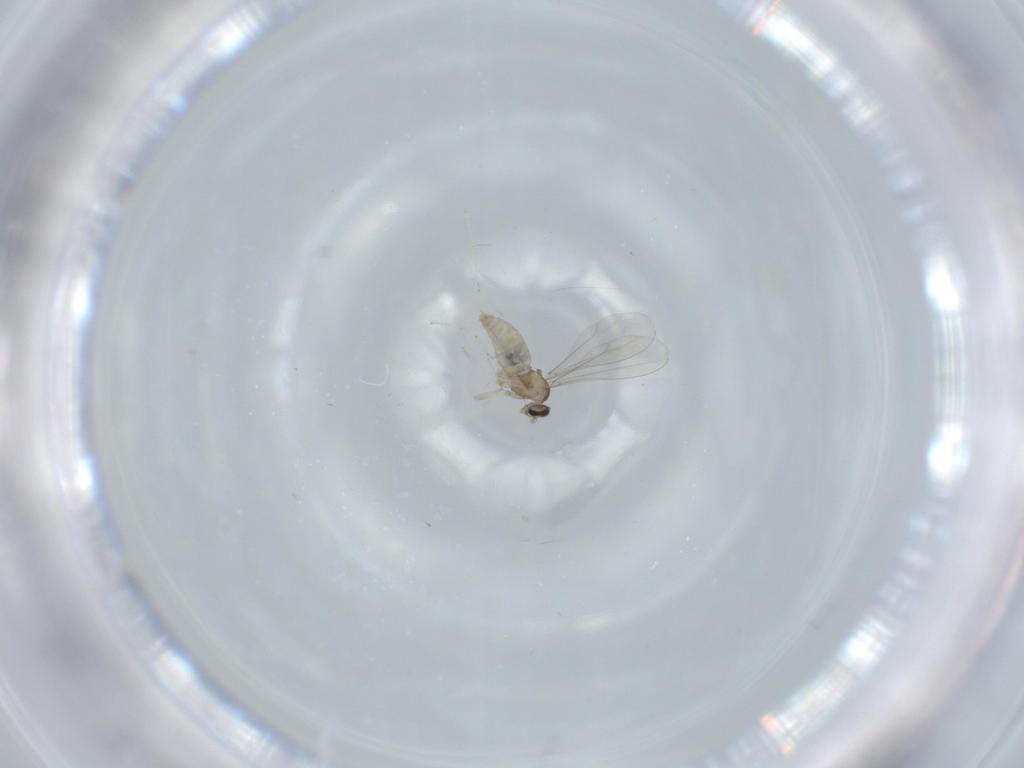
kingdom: Animalia
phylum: Arthropoda
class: Insecta
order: Diptera
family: Cecidomyiidae
